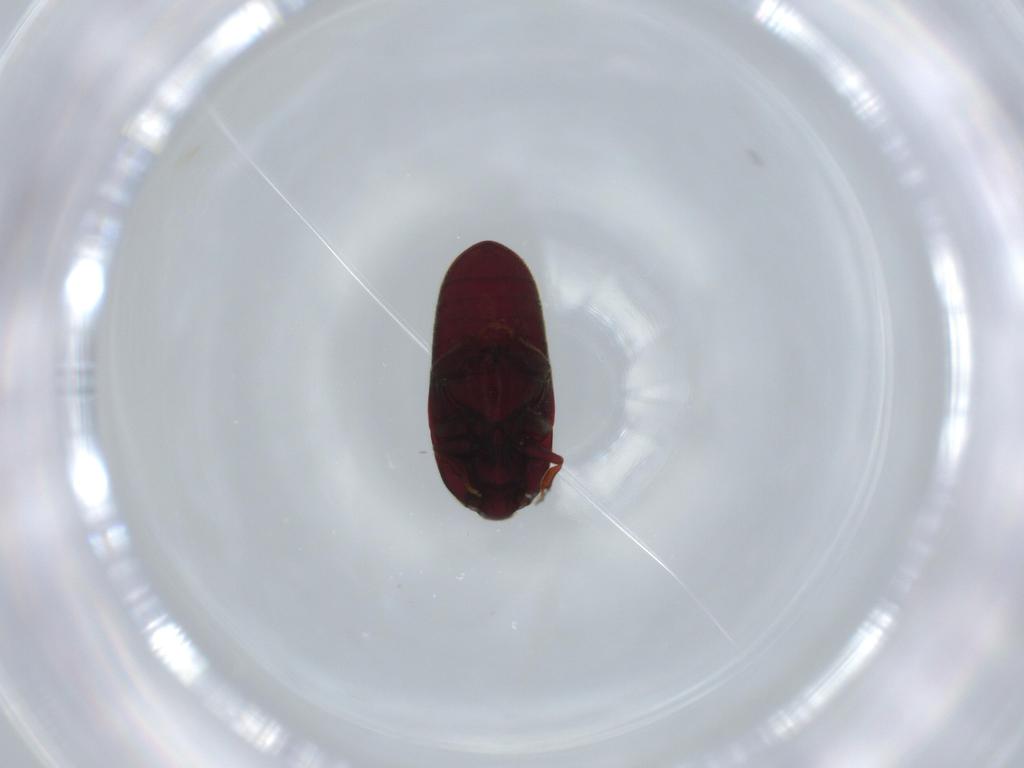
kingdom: Animalia
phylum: Arthropoda
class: Insecta
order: Coleoptera
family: Throscidae
